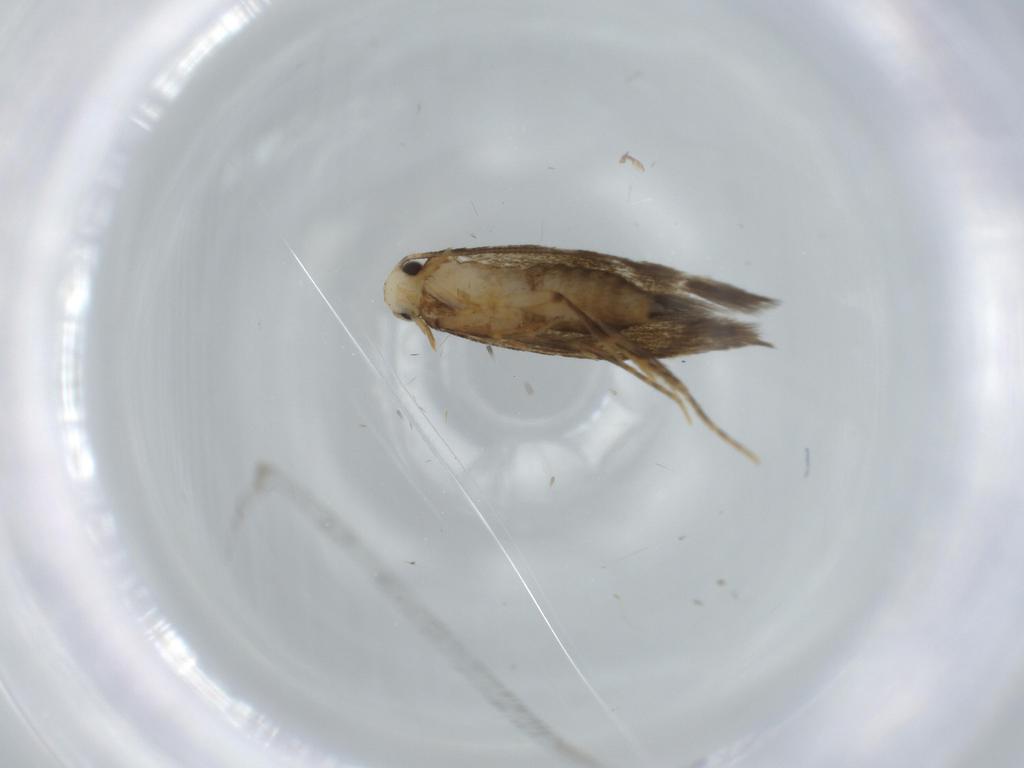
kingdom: Animalia
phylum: Arthropoda
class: Insecta
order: Lepidoptera
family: Tineidae
